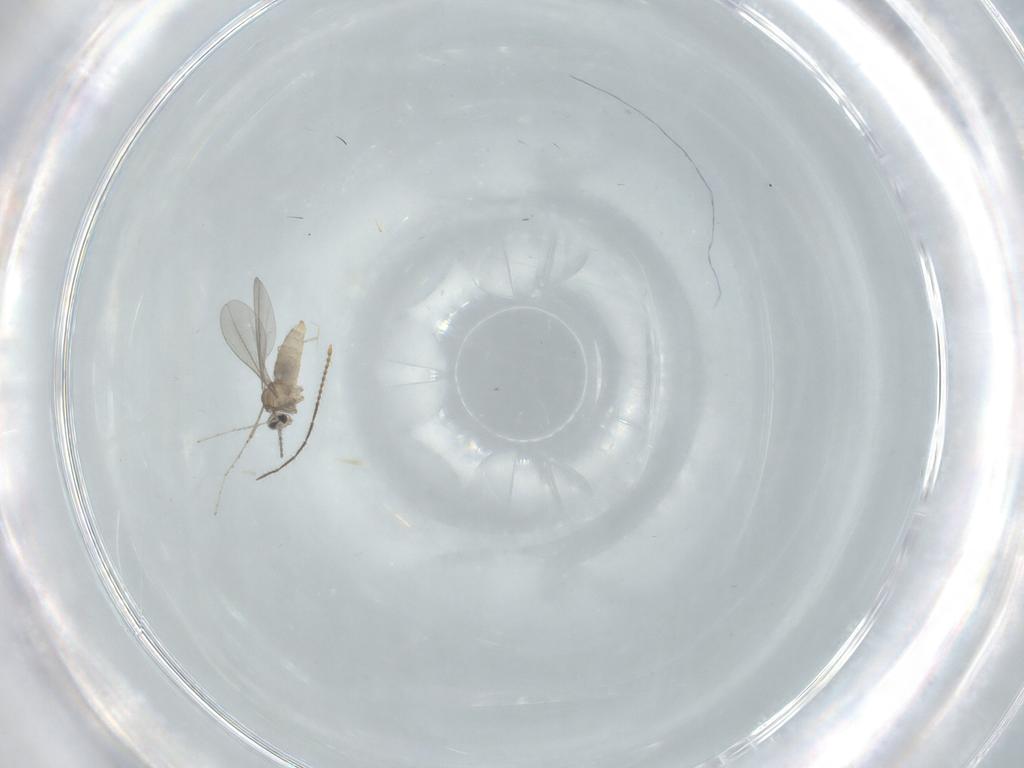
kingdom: Animalia
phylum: Arthropoda
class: Insecta
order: Diptera
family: Cecidomyiidae
